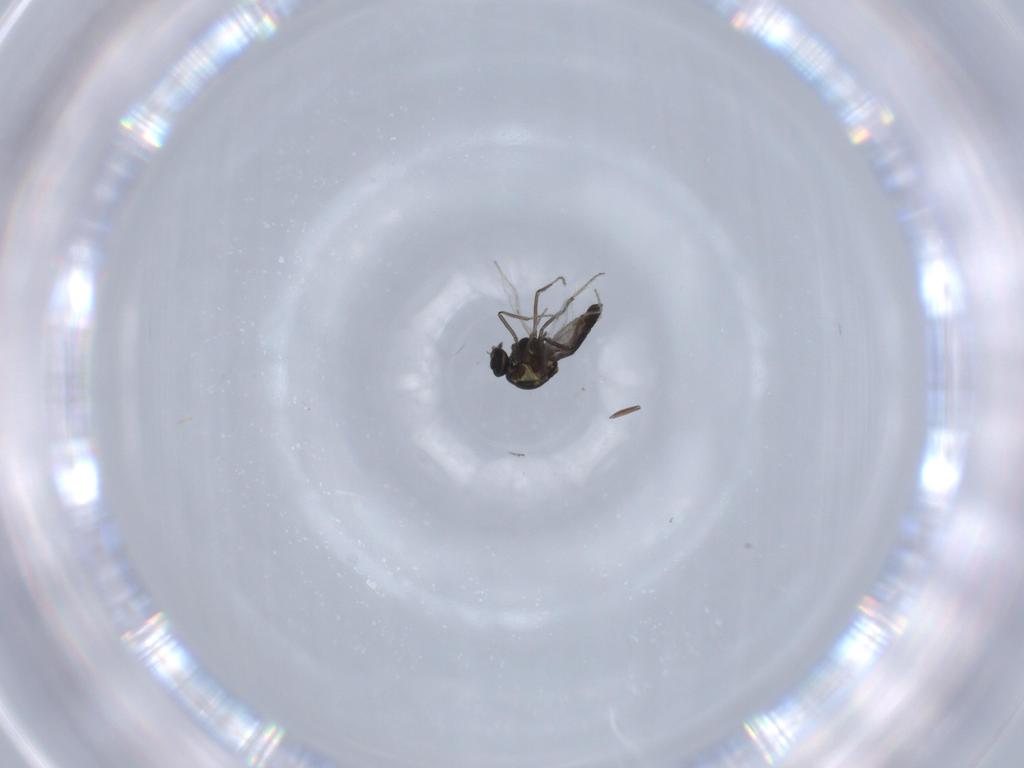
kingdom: Animalia
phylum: Arthropoda
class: Insecta
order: Diptera
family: Ceratopogonidae
